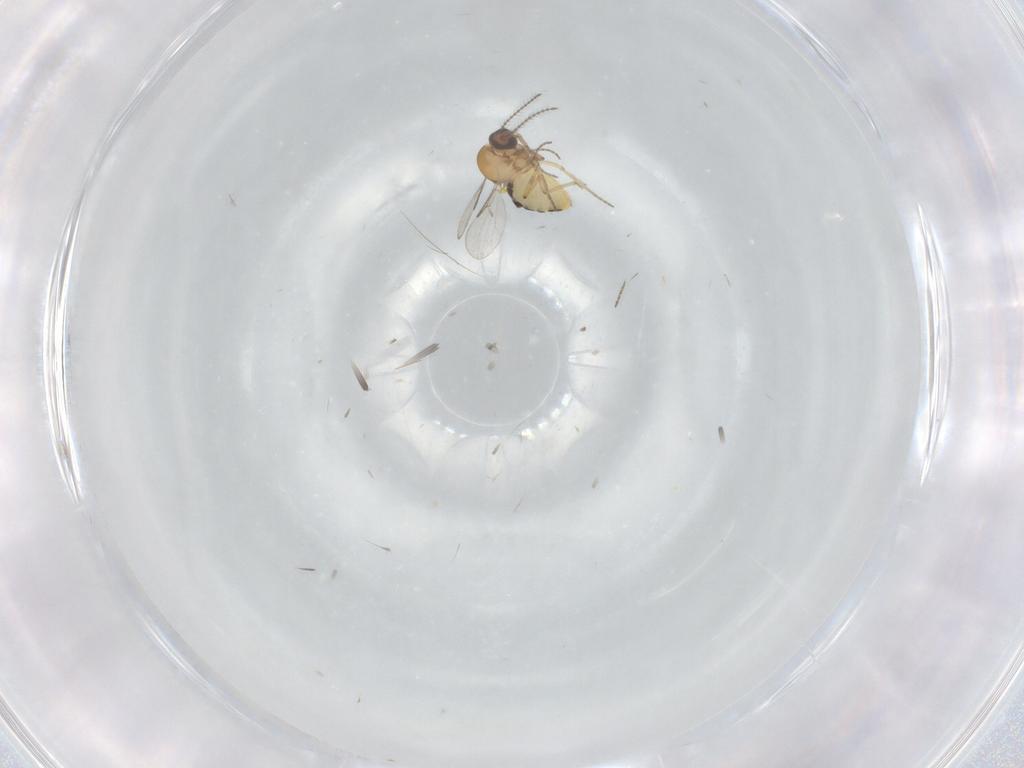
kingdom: Animalia
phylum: Arthropoda
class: Insecta
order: Diptera
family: Ceratopogonidae
